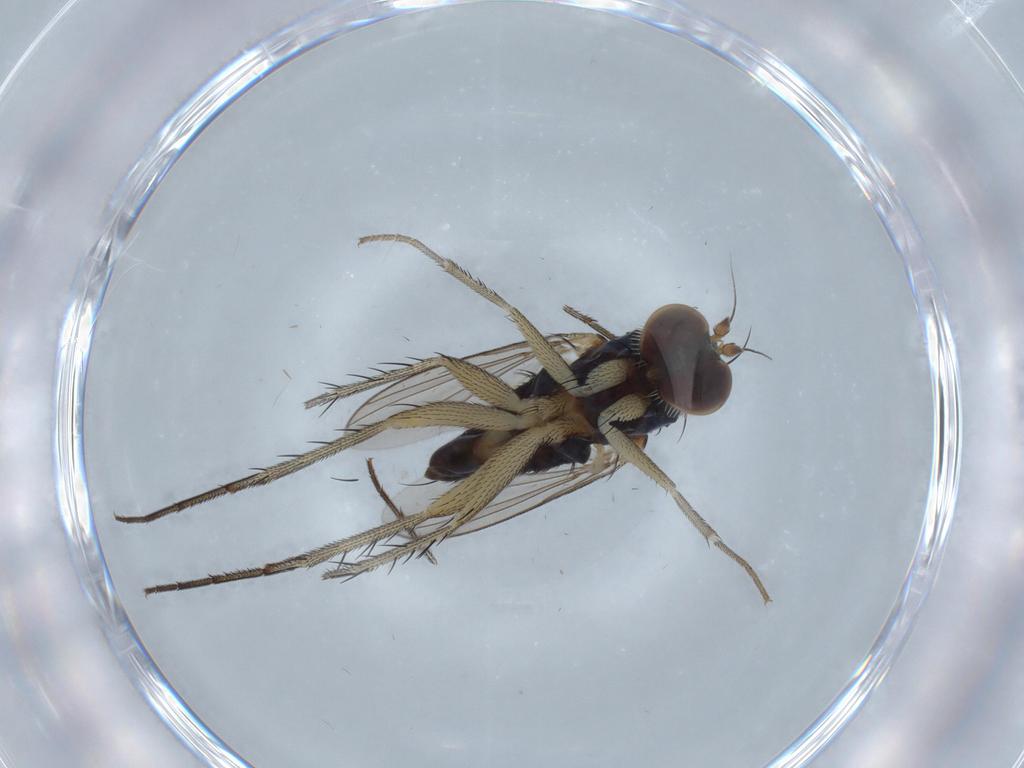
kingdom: Animalia
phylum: Arthropoda
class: Insecta
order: Diptera
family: Dolichopodidae
